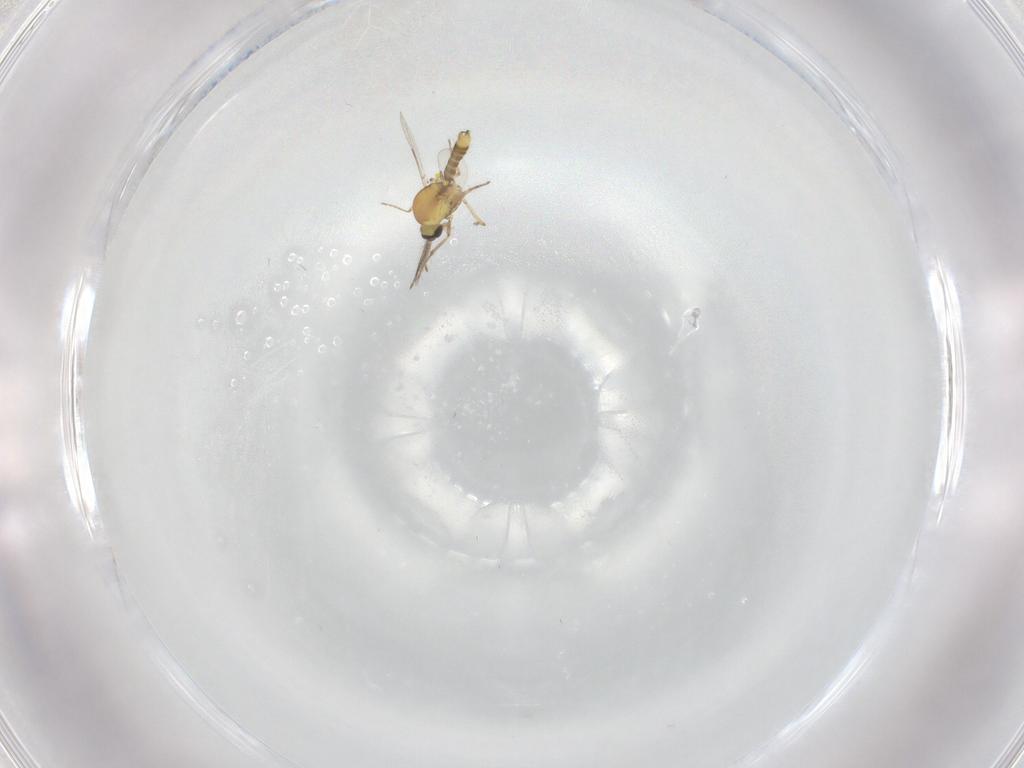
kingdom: Animalia
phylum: Arthropoda
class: Insecta
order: Diptera
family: Ceratopogonidae
